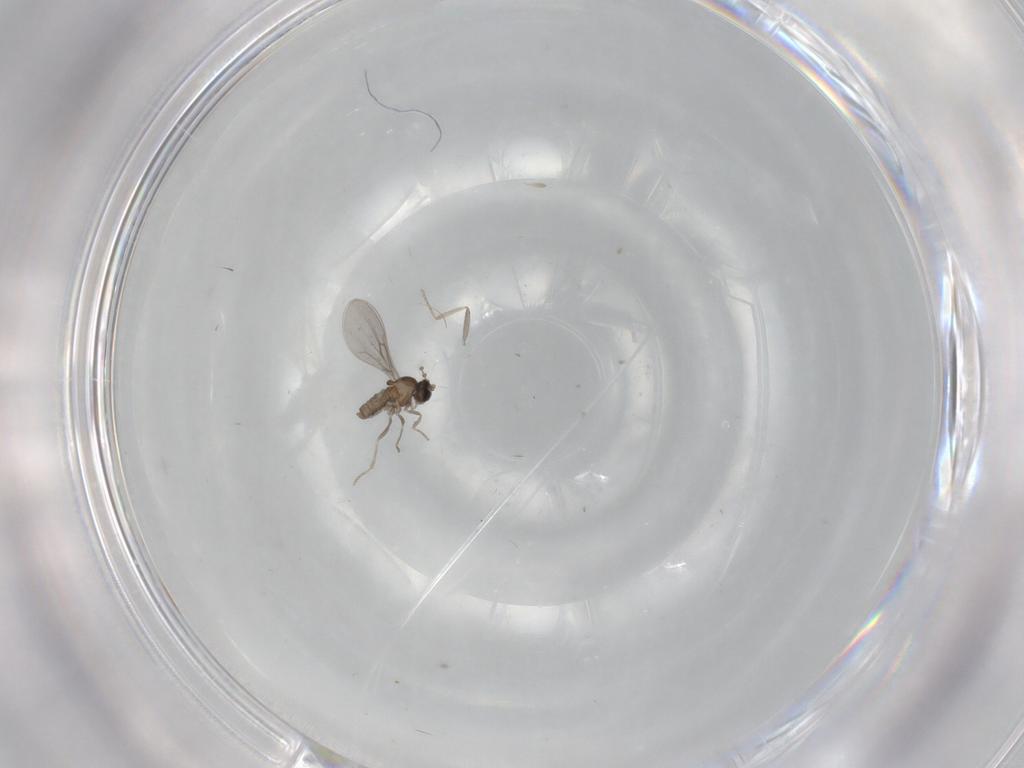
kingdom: Animalia
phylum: Arthropoda
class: Insecta
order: Diptera
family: Cecidomyiidae
